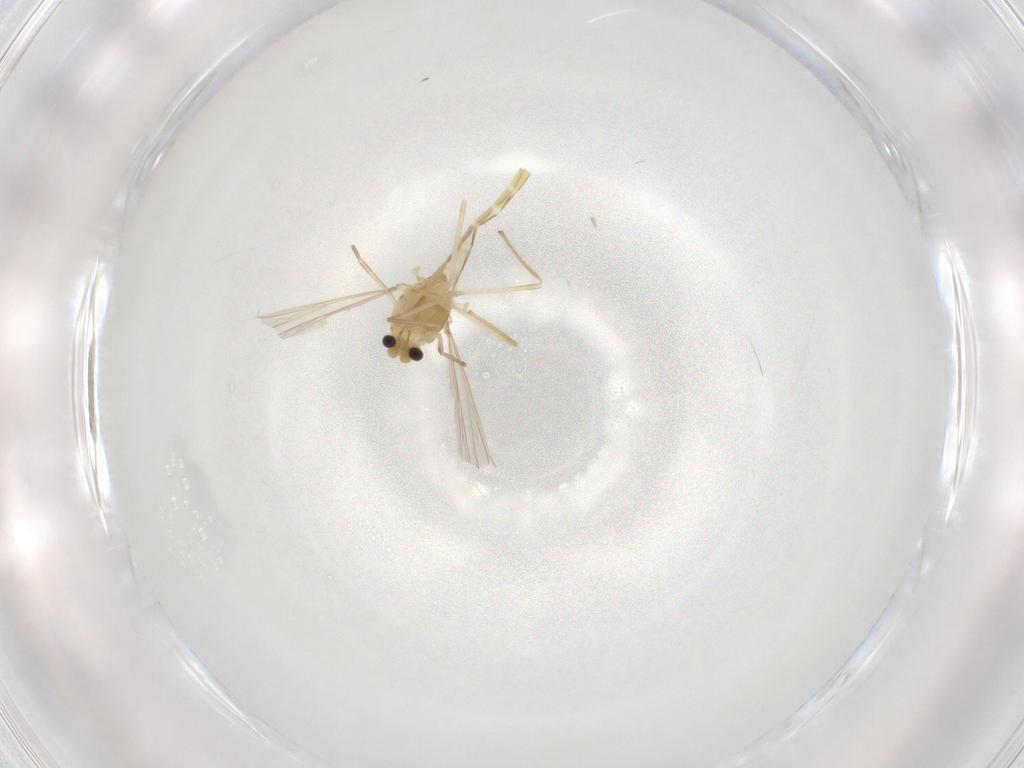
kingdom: Animalia
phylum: Arthropoda
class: Insecta
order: Diptera
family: Chironomidae
